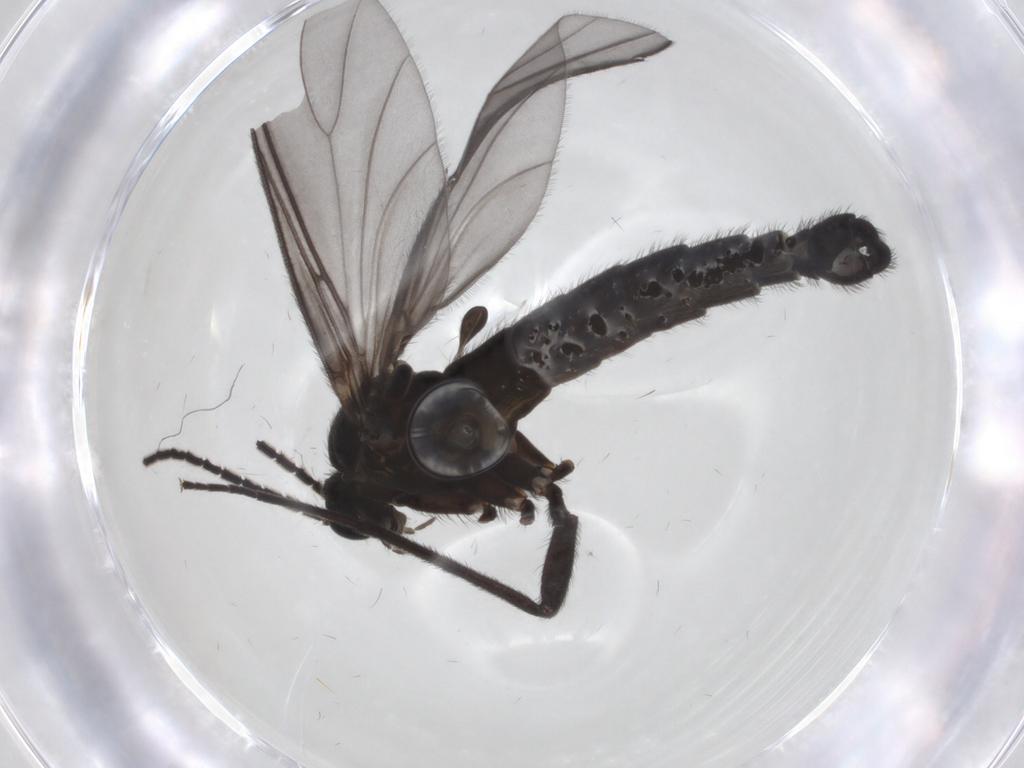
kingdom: Animalia
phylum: Arthropoda
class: Insecta
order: Diptera
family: Sciaridae
